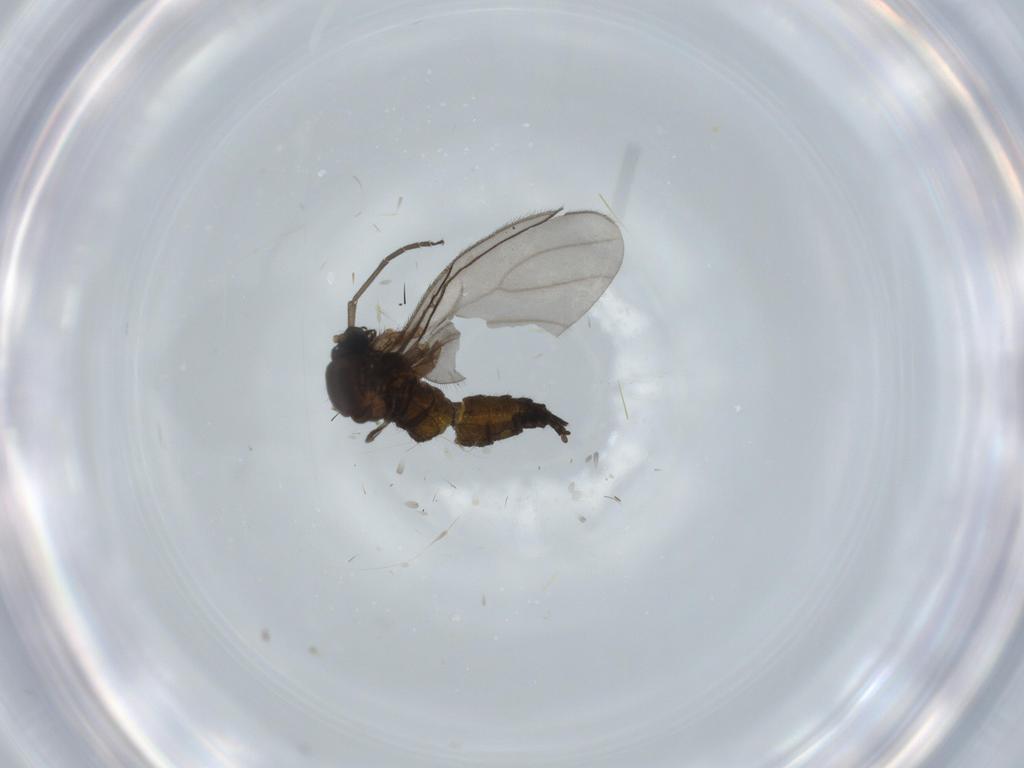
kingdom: Animalia
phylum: Arthropoda
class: Insecta
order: Diptera
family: Sciaridae
